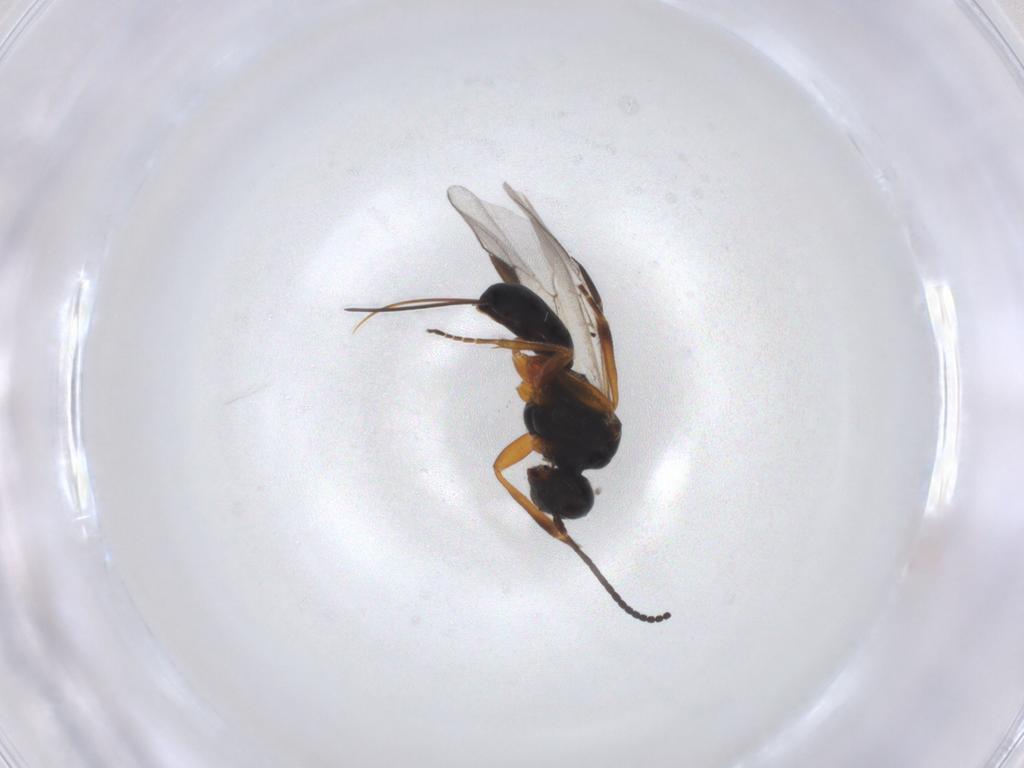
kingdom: Animalia
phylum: Arthropoda
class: Insecta
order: Hymenoptera
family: Braconidae
